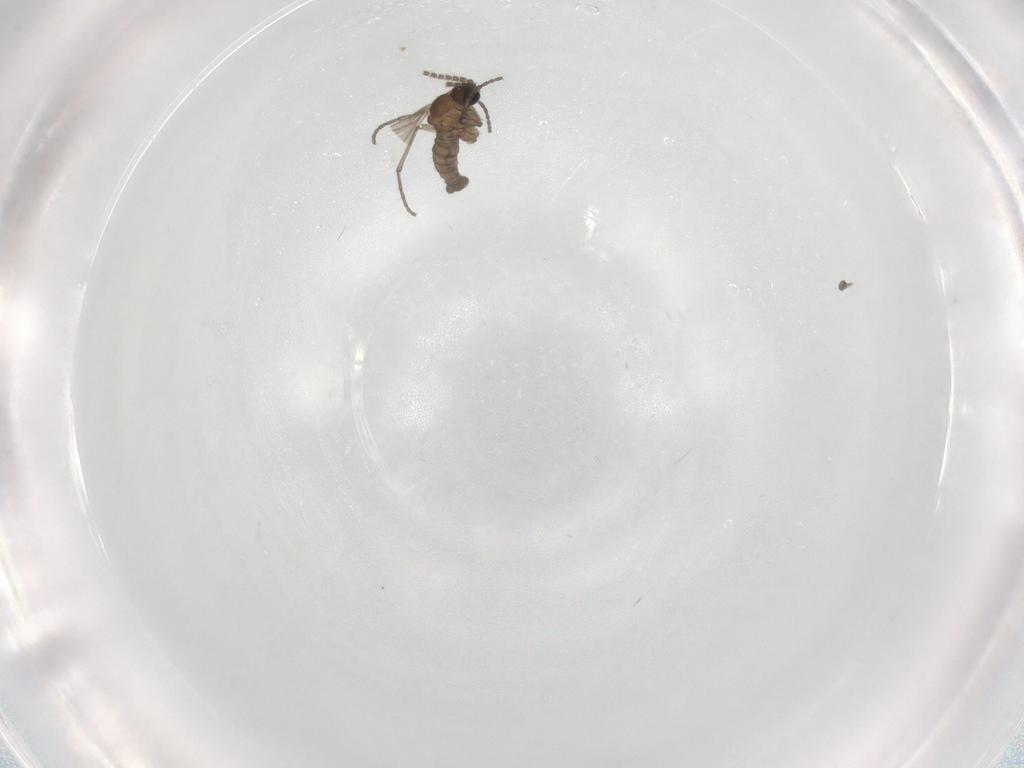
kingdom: Animalia
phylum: Arthropoda
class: Insecta
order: Diptera
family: Sciaridae
